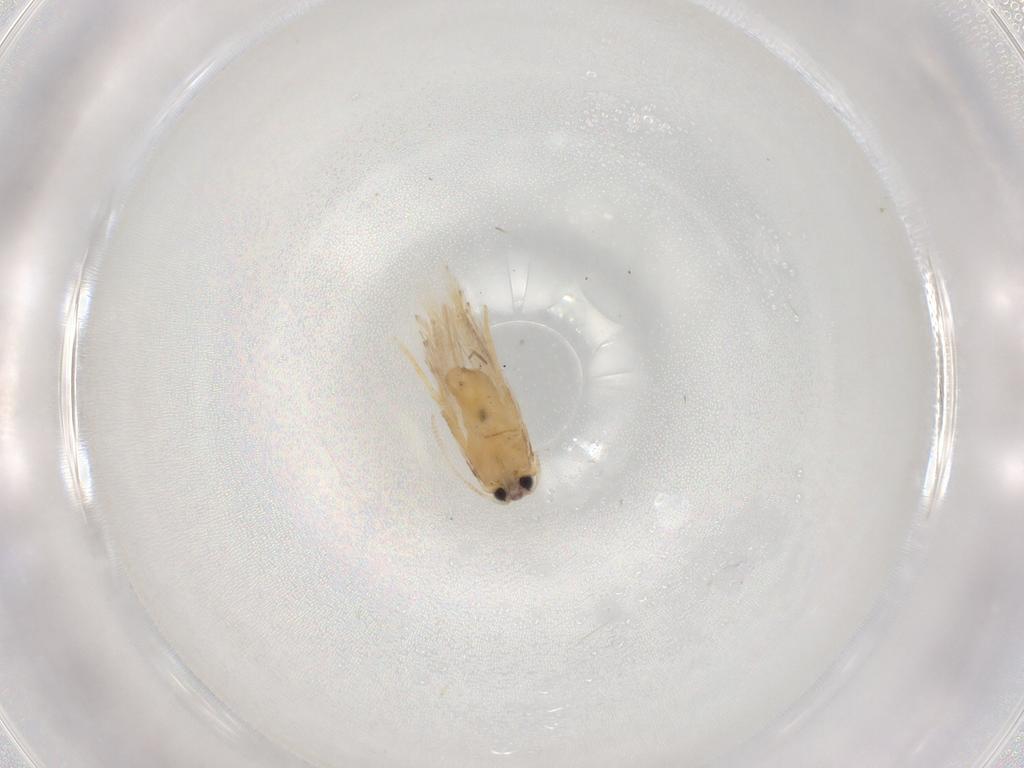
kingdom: Animalia
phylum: Arthropoda
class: Insecta
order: Lepidoptera
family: Nepticulidae
